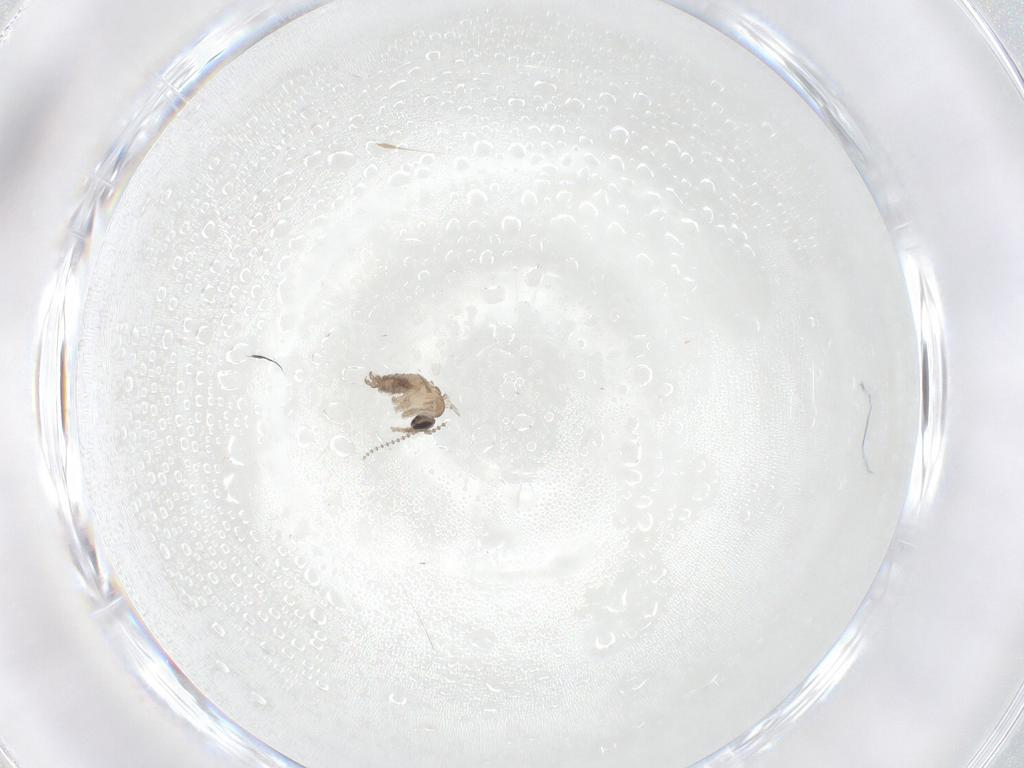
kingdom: Animalia
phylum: Arthropoda
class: Insecta
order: Diptera
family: Psychodidae
